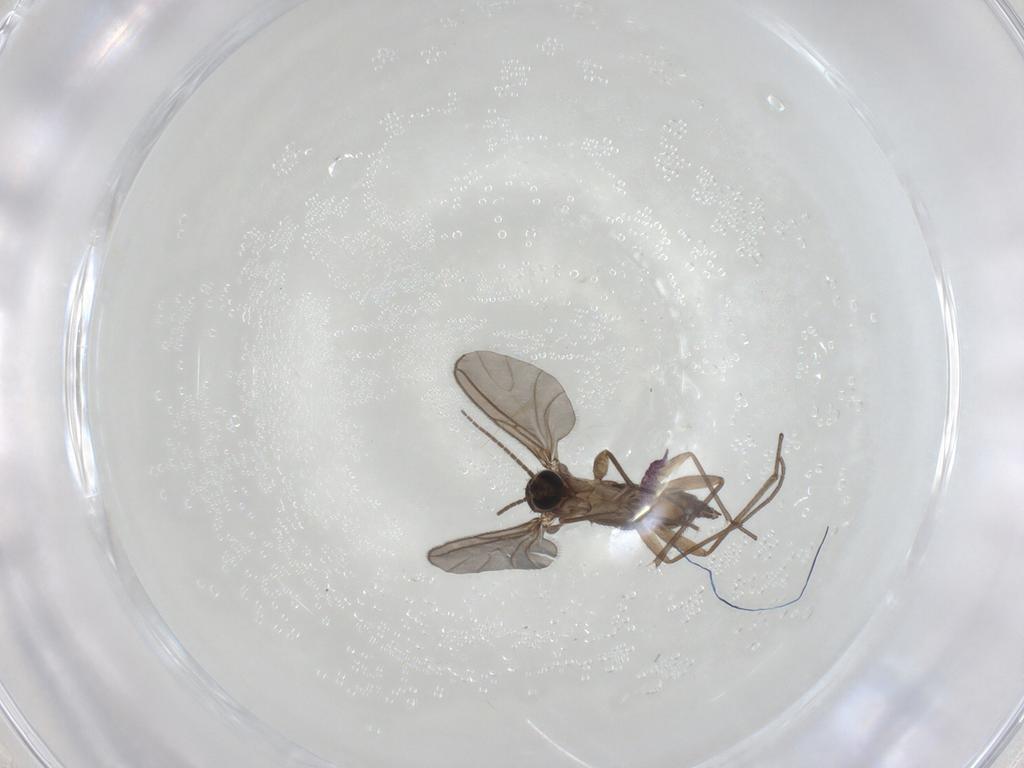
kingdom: Animalia
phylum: Arthropoda
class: Insecta
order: Diptera
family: Sciaridae
